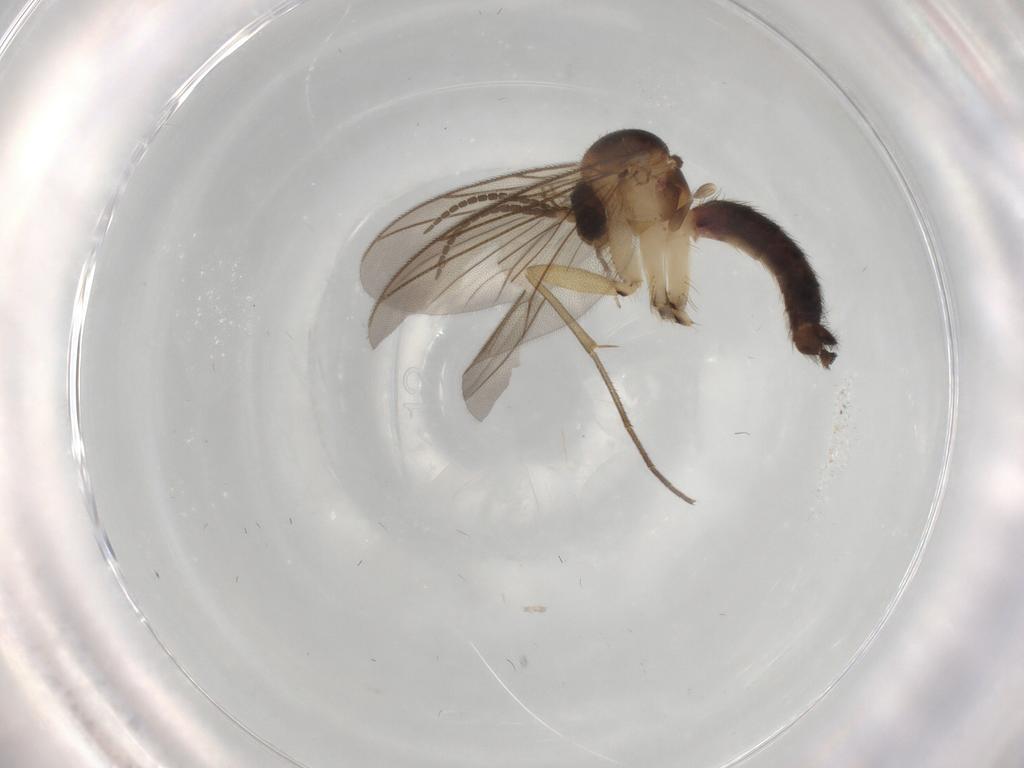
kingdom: Animalia
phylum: Arthropoda
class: Insecta
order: Diptera
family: Mycetophilidae
